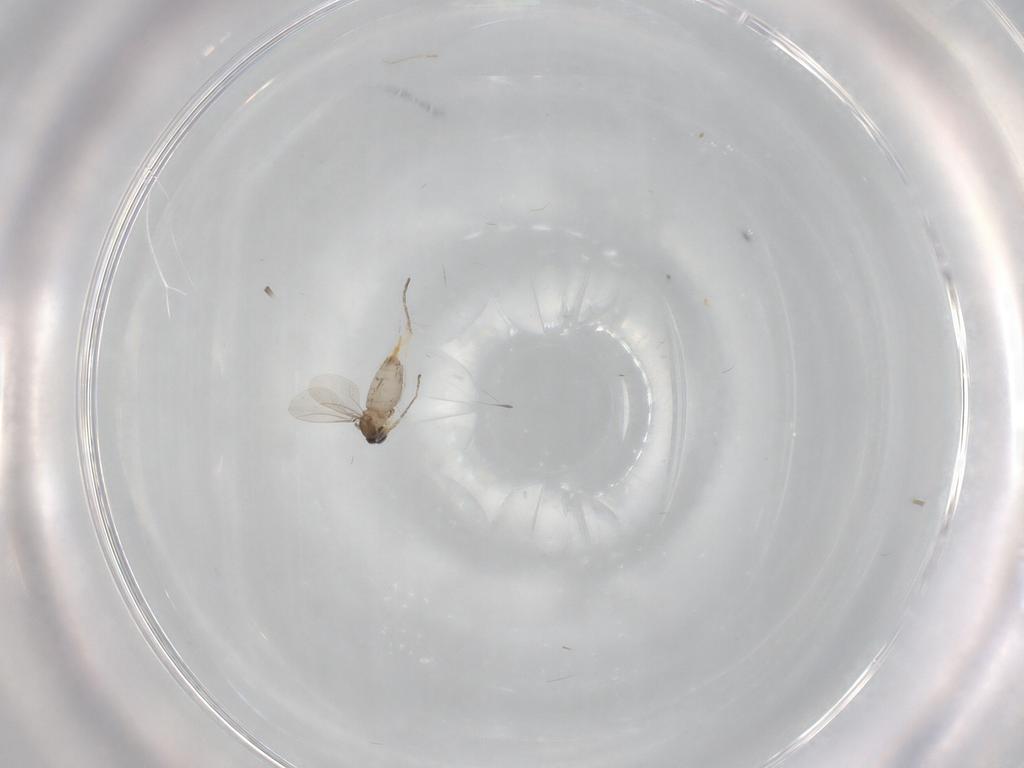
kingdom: Animalia
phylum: Arthropoda
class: Insecta
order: Diptera
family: Cecidomyiidae
